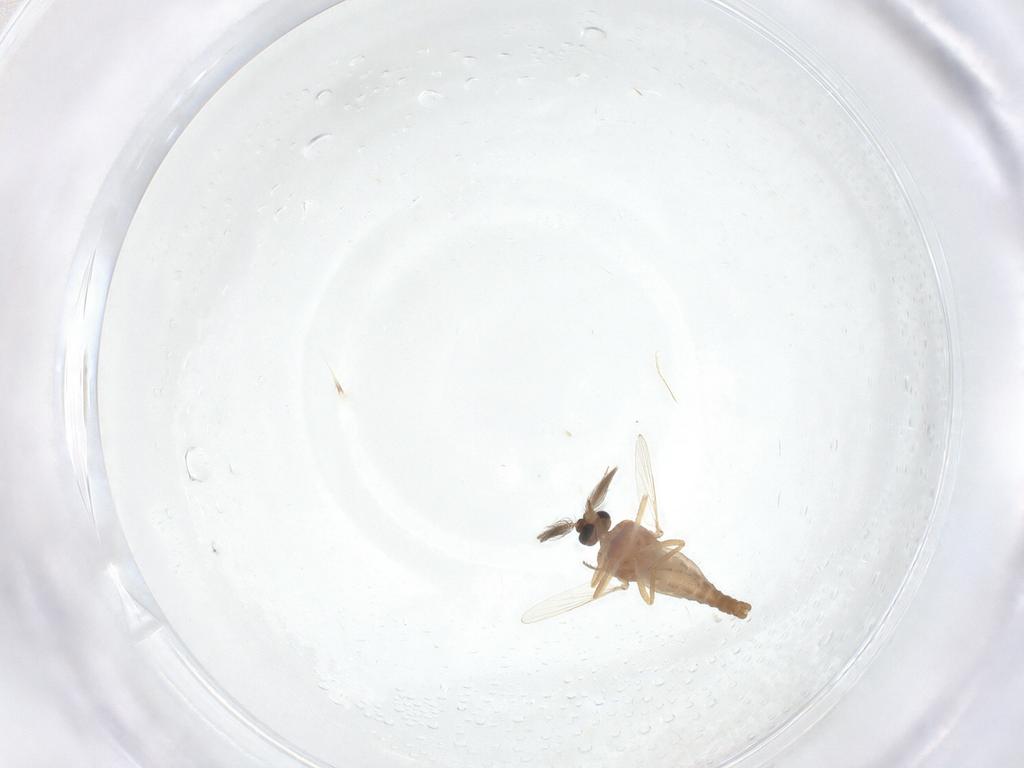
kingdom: Animalia
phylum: Arthropoda
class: Insecta
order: Diptera
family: Ceratopogonidae
